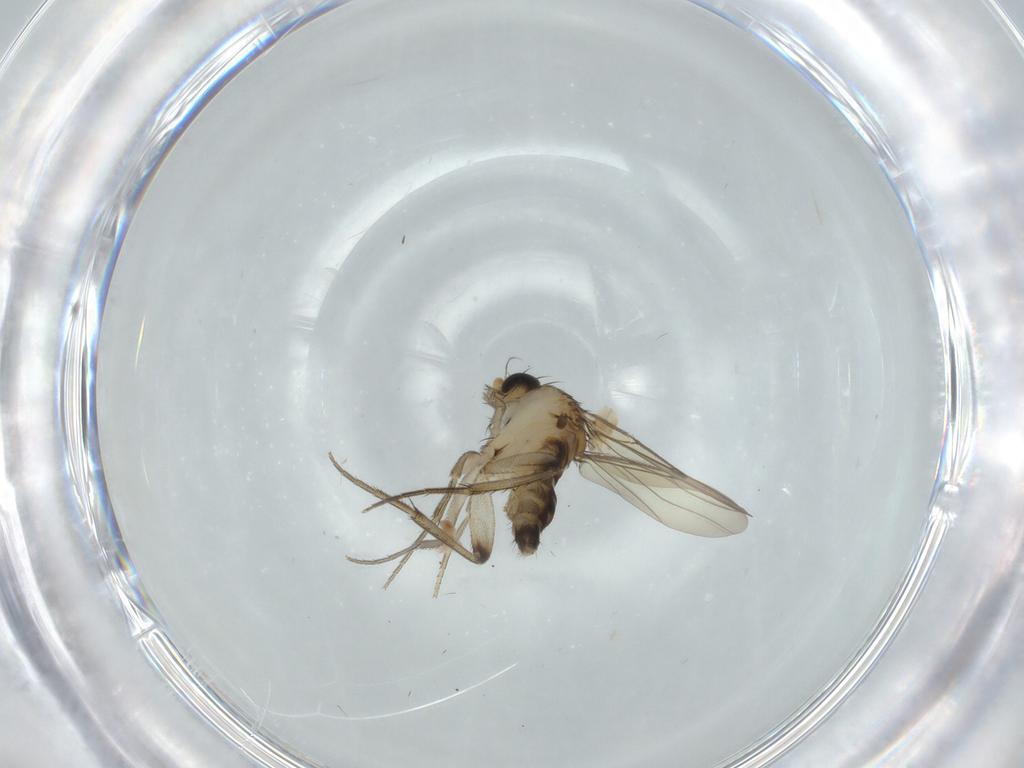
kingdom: Animalia
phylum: Arthropoda
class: Insecta
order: Diptera
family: Phoridae
